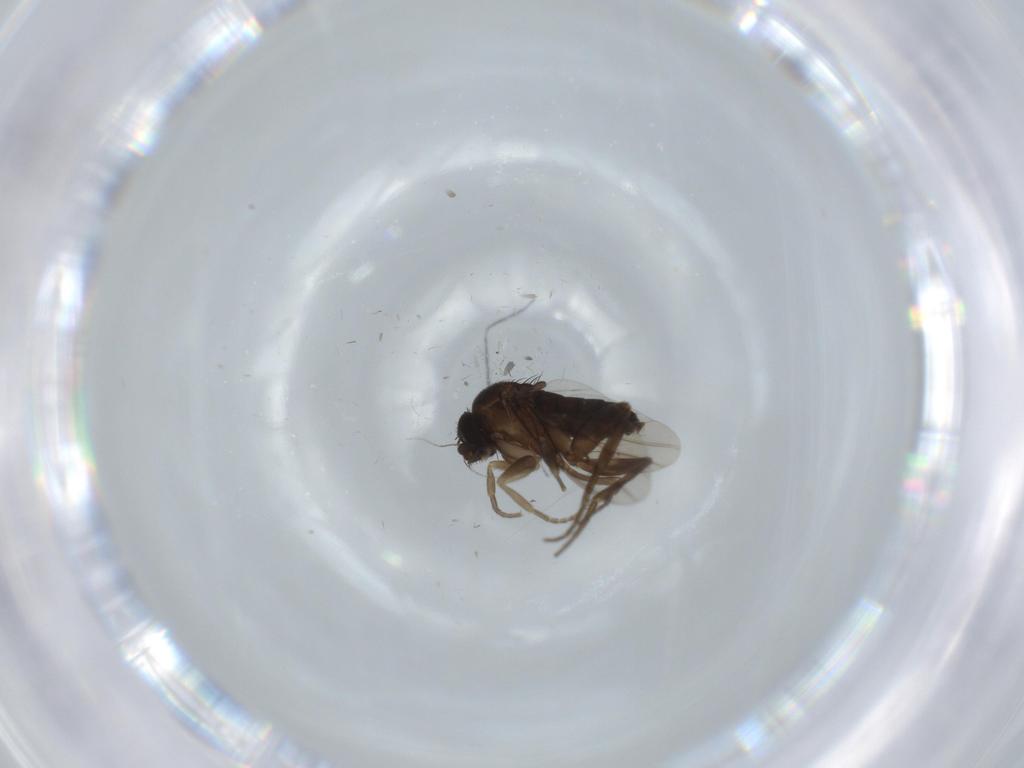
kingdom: Animalia
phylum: Arthropoda
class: Insecta
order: Diptera
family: Phoridae
